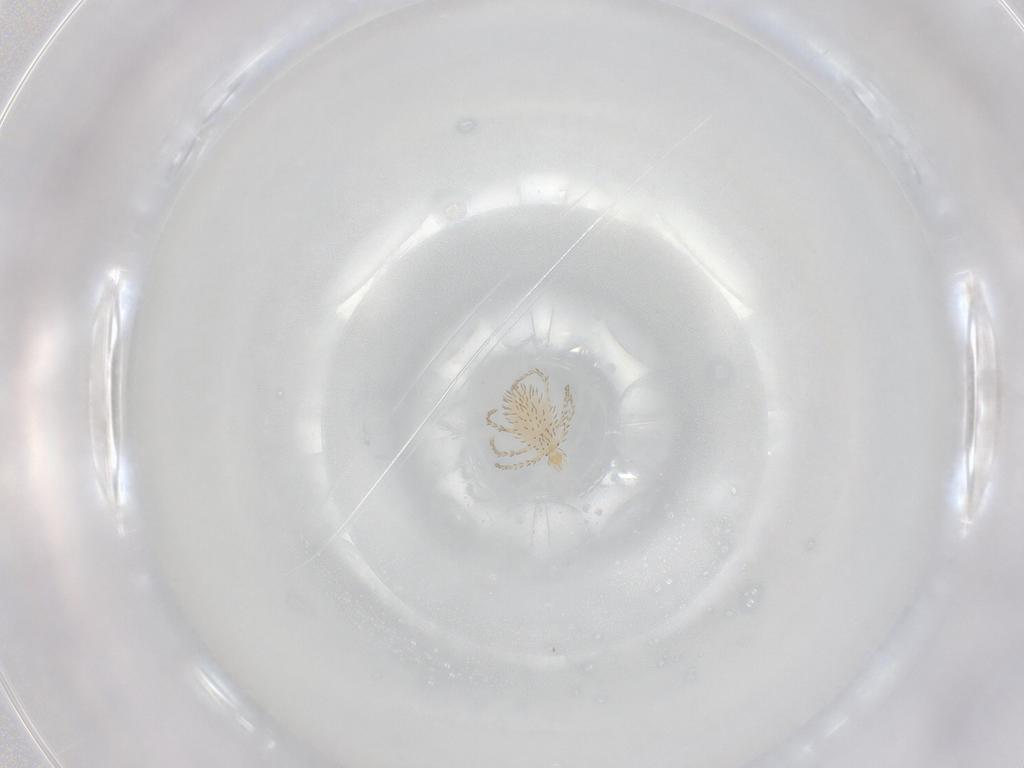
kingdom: Animalia
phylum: Arthropoda
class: Arachnida
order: Trombidiformes
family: Erythraeidae
